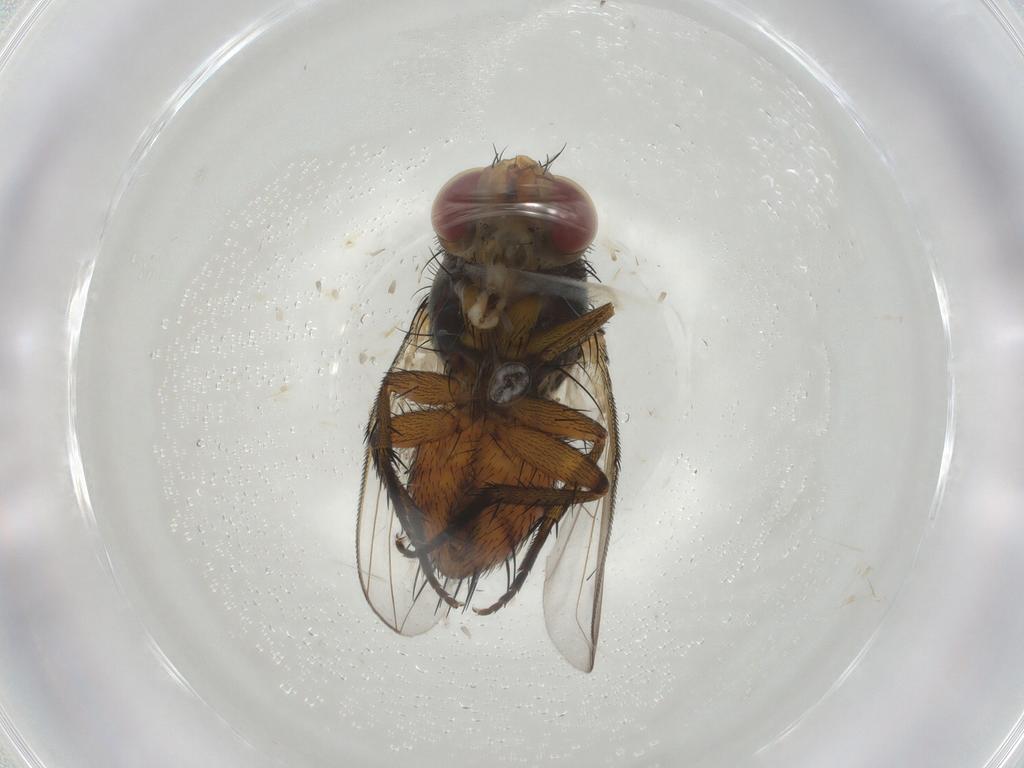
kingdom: Animalia
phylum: Arthropoda
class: Insecta
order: Diptera
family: Tachinidae
